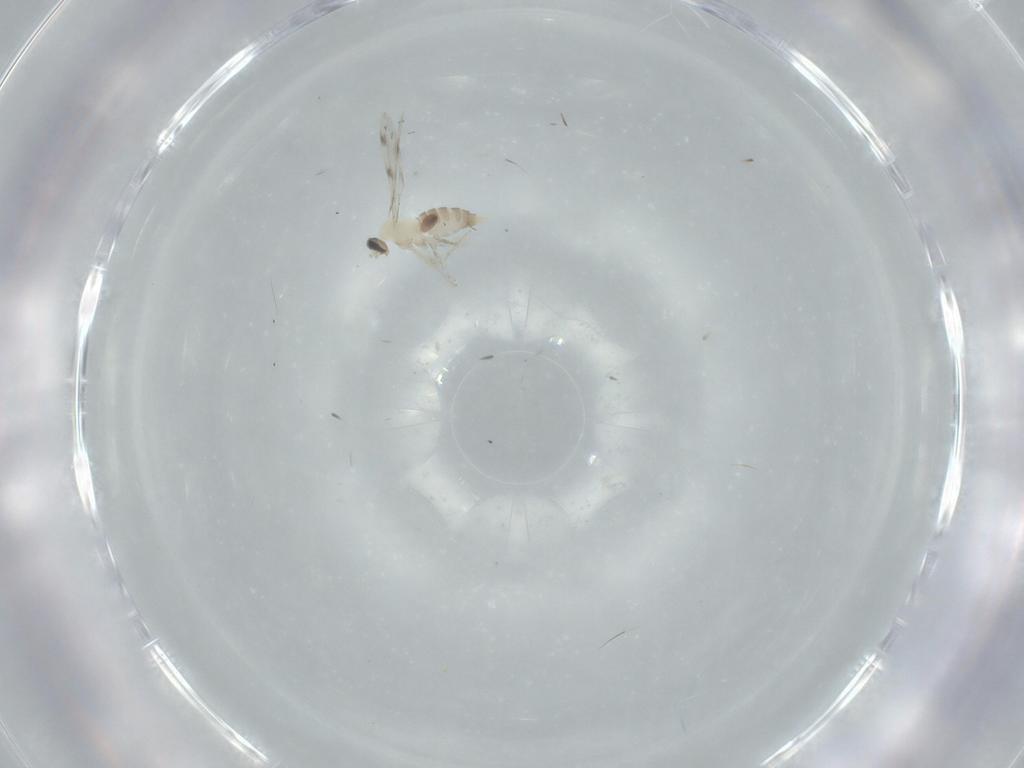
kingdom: Animalia
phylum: Arthropoda
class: Insecta
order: Diptera
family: Cecidomyiidae
